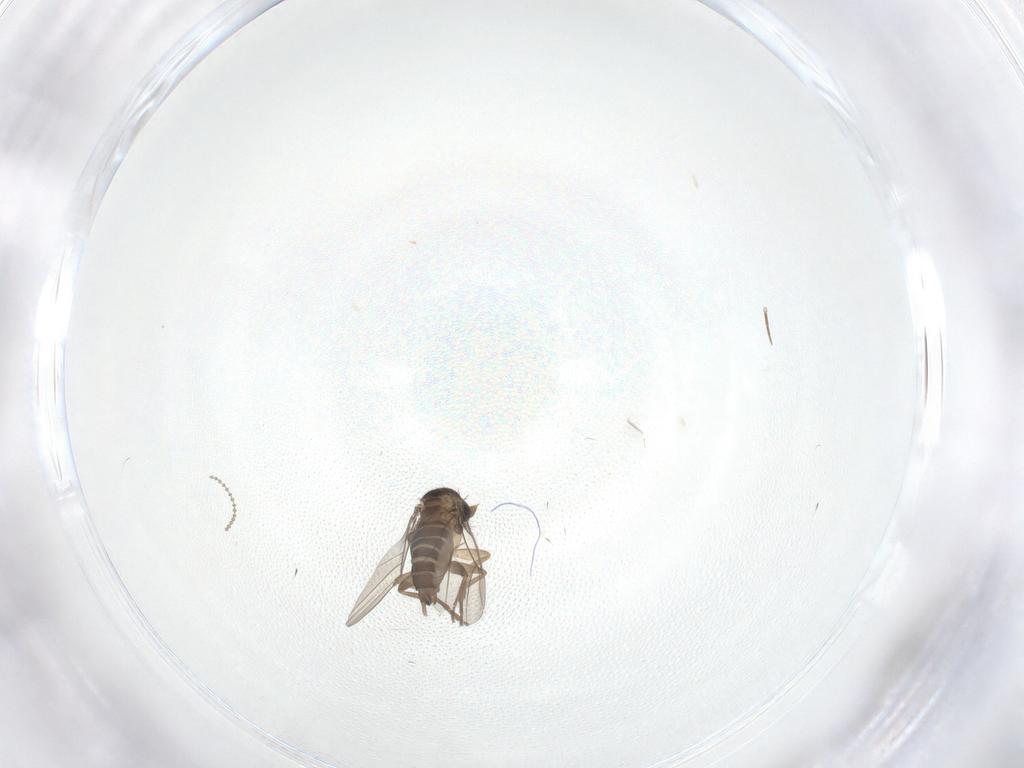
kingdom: Animalia
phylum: Arthropoda
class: Insecta
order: Diptera
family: Phoridae
